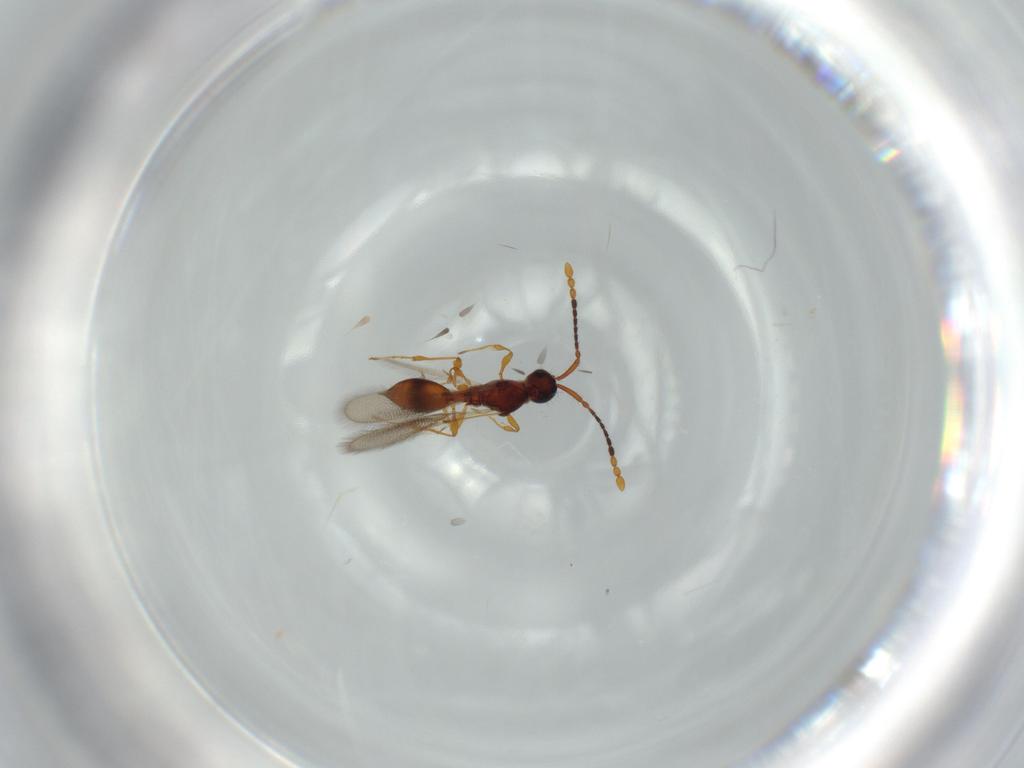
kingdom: Animalia
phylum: Arthropoda
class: Insecta
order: Hymenoptera
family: Diapriidae
